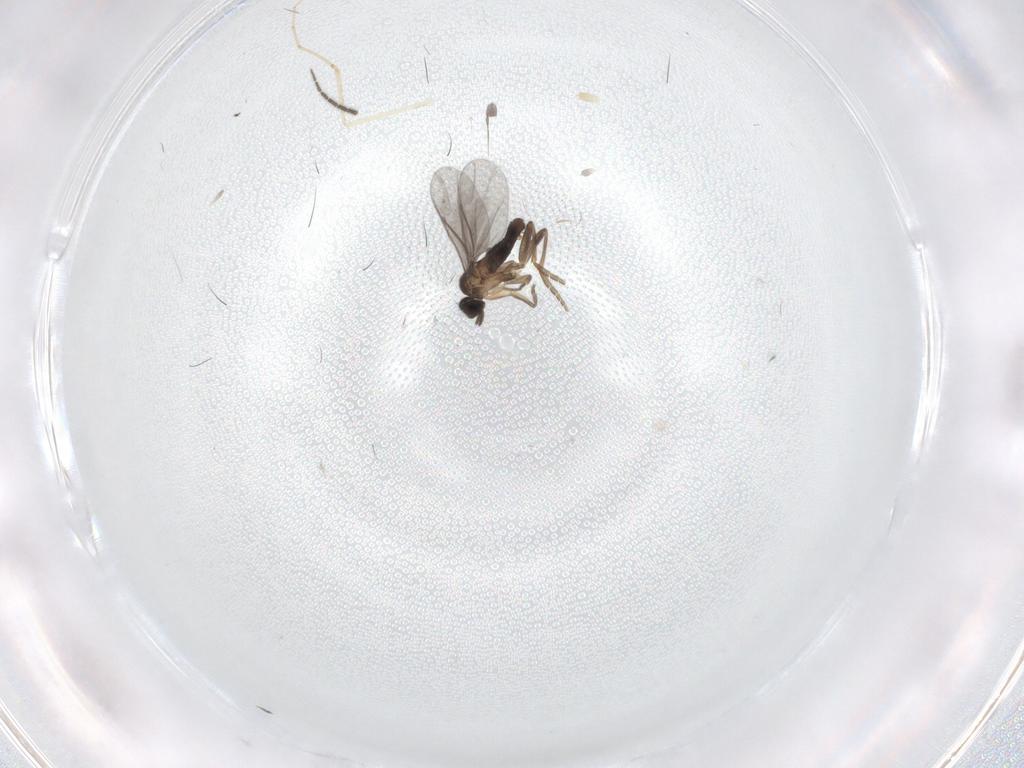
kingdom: Animalia
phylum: Arthropoda
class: Insecta
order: Diptera
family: Cecidomyiidae
